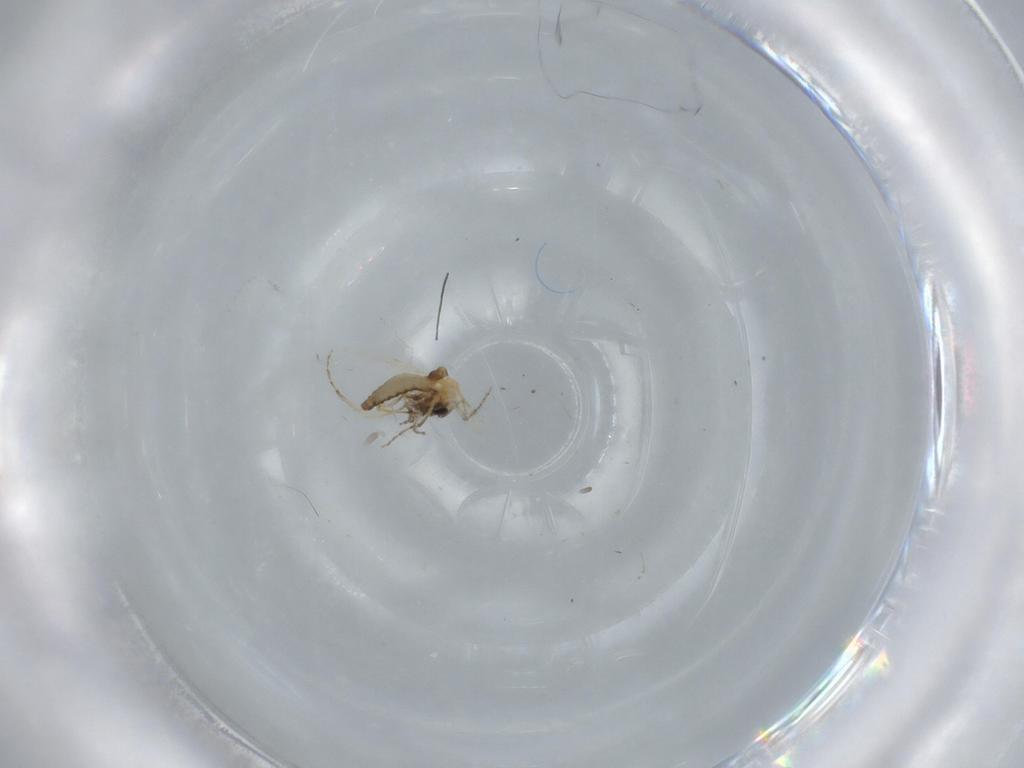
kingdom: Animalia
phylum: Arthropoda
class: Insecta
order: Diptera
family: Ceratopogonidae
